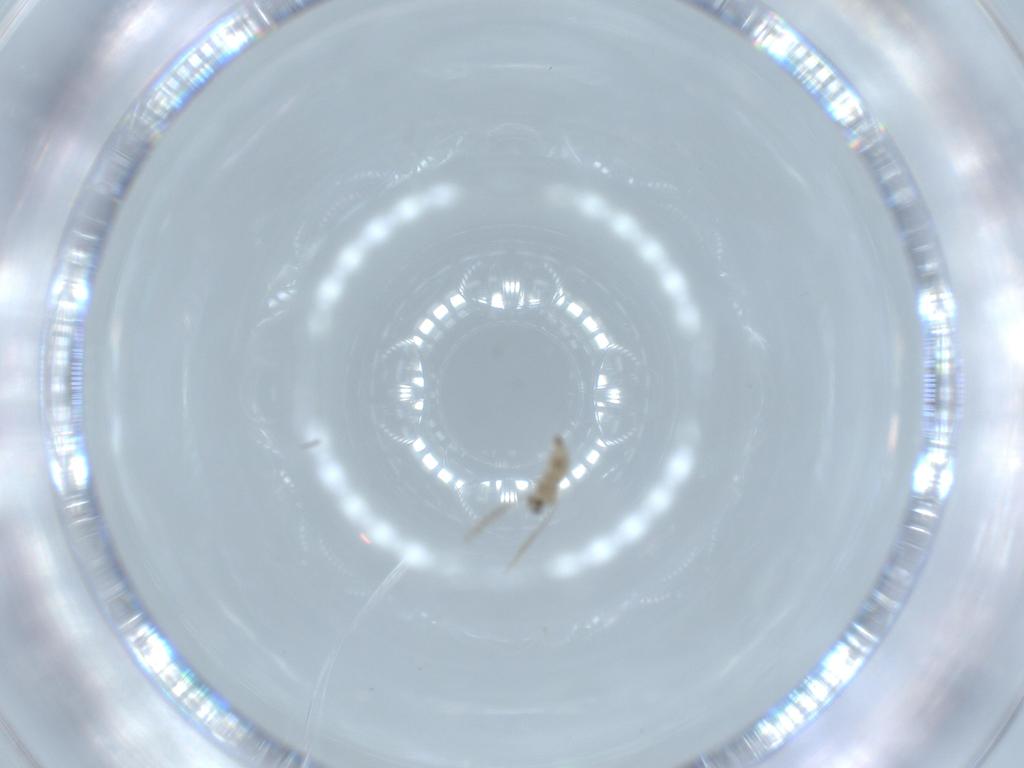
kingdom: Animalia
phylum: Arthropoda
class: Insecta
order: Diptera
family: Cecidomyiidae
